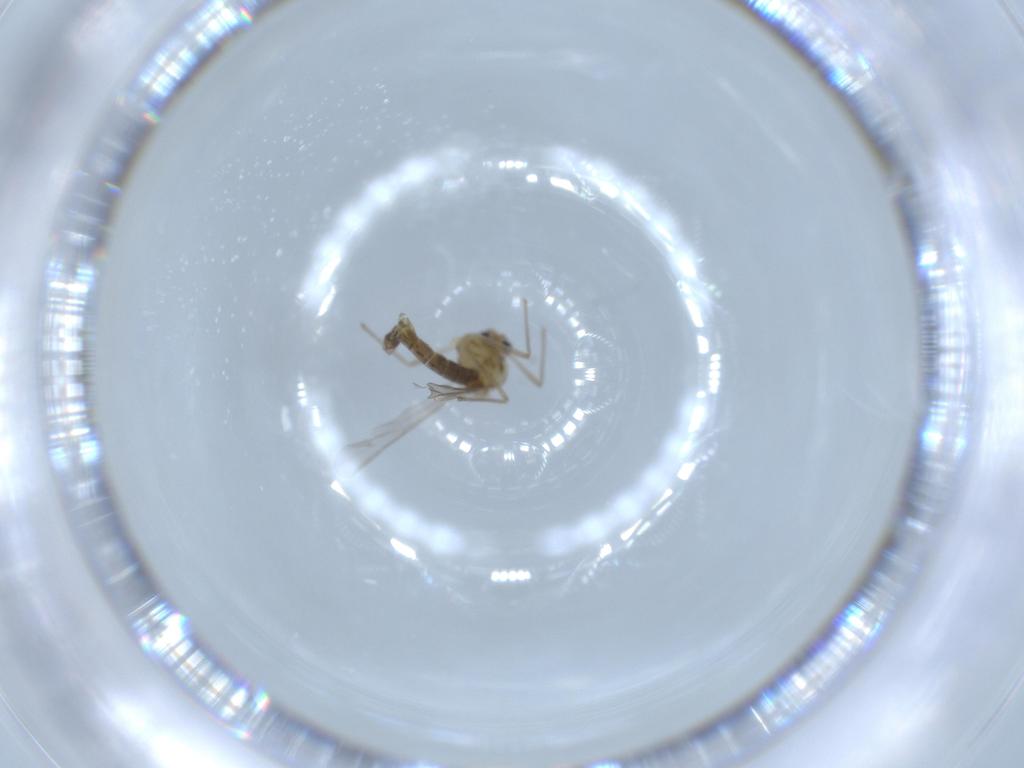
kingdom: Animalia
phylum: Arthropoda
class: Insecta
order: Diptera
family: Chironomidae
